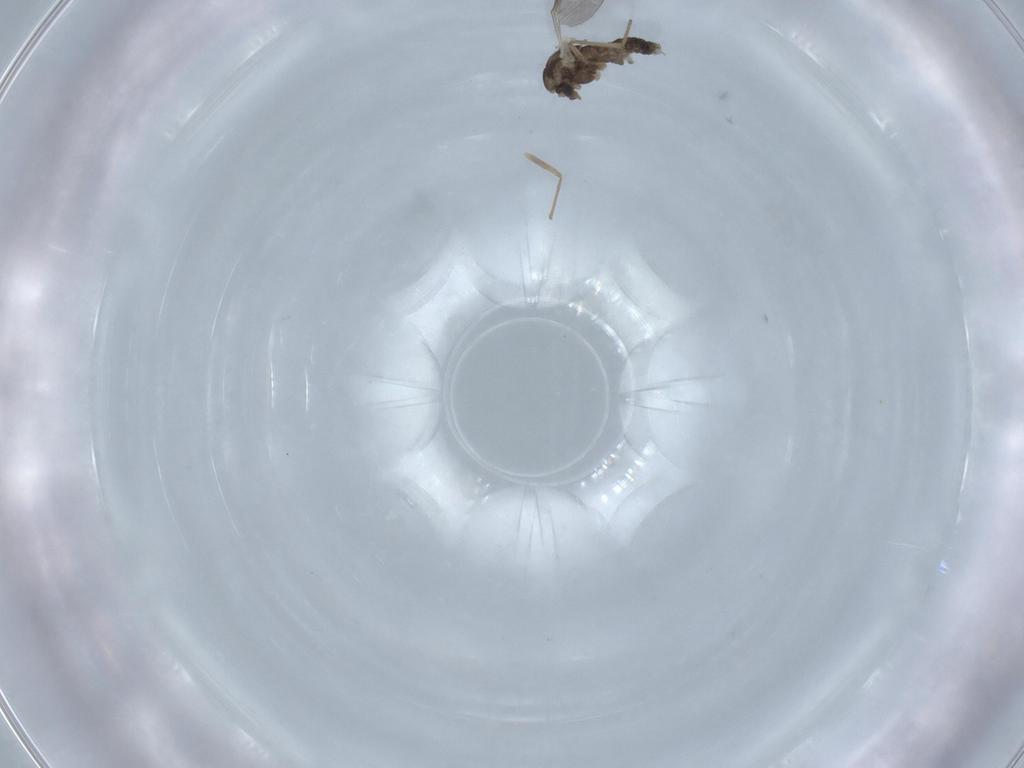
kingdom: Animalia
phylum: Arthropoda
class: Insecta
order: Diptera
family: Chironomidae
